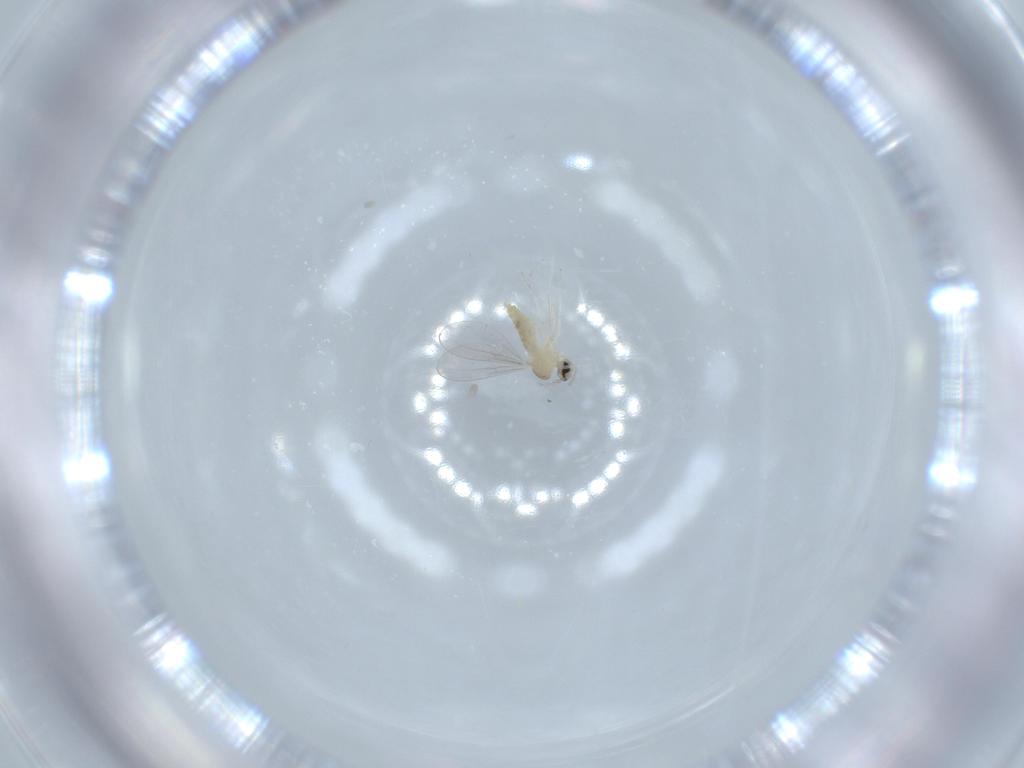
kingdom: Animalia
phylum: Arthropoda
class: Insecta
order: Diptera
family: Cecidomyiidae
